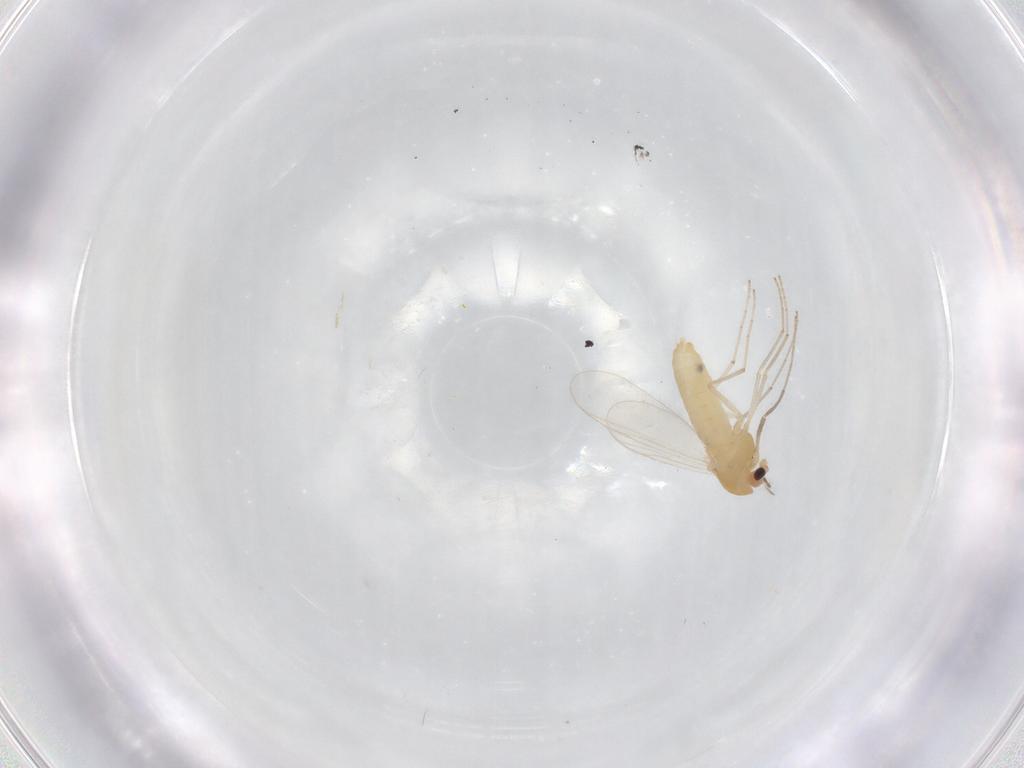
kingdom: Animalia
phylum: Arthropoda
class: Insecta
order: Diptera
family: Chironomidae
